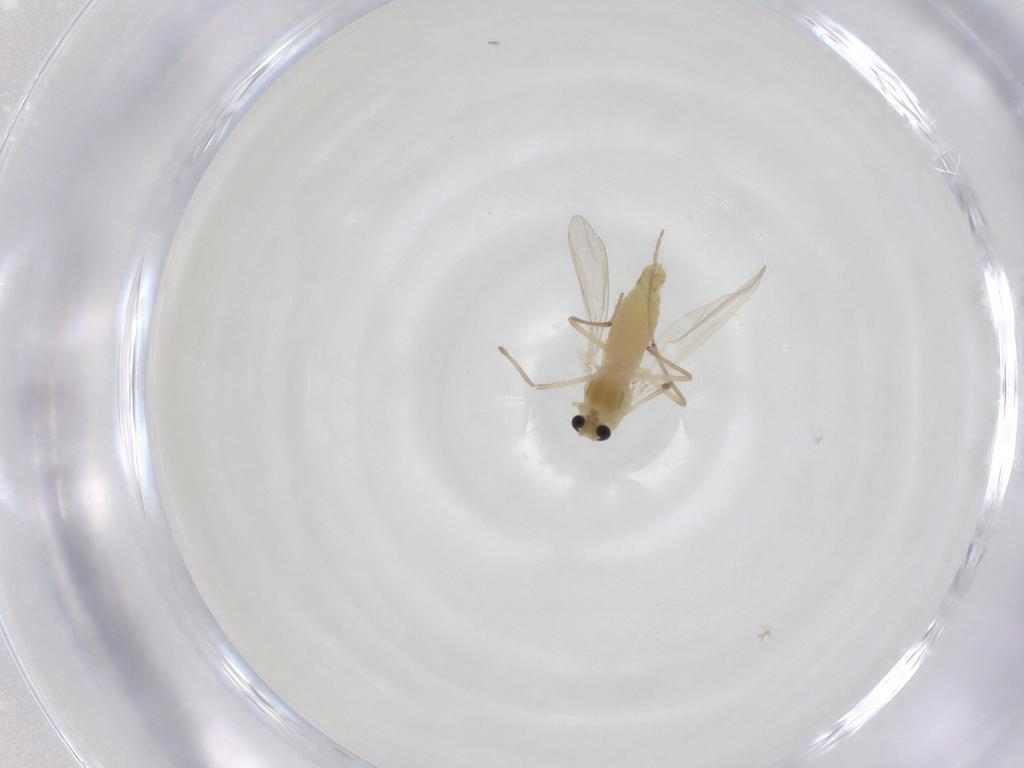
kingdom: Animalia
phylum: Arthropoda
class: Insecta
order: Diptera
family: Chironomidae
